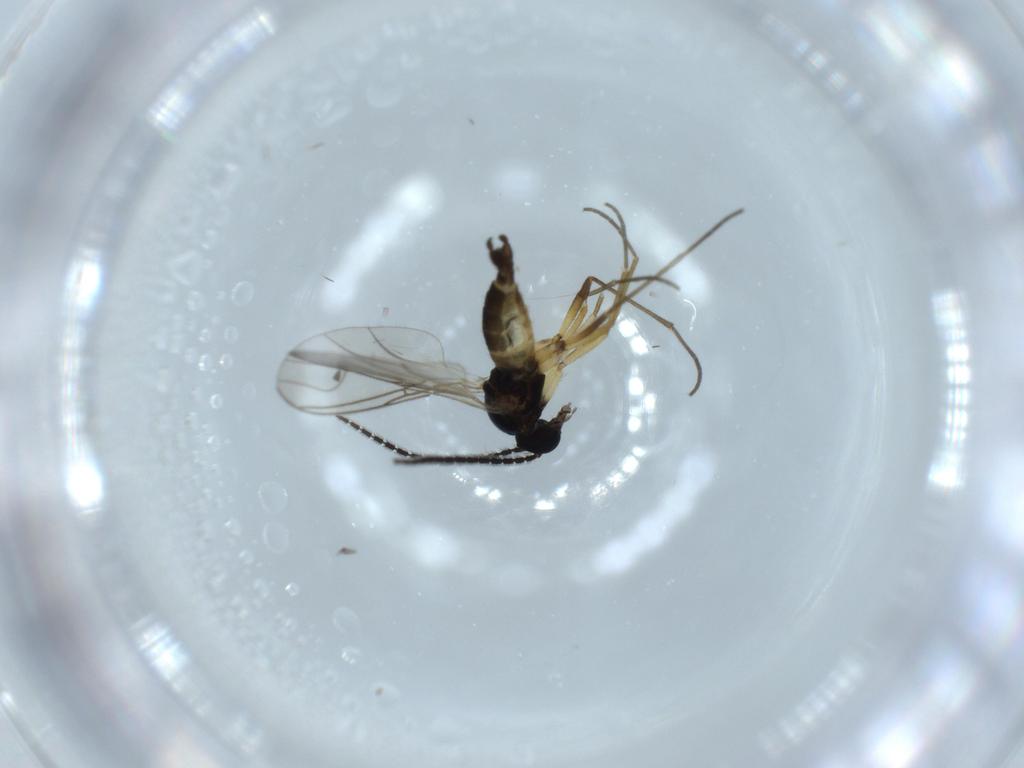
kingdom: Animalia
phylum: Arthropoda
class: Insecta
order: Diptera
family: Sciaridae
